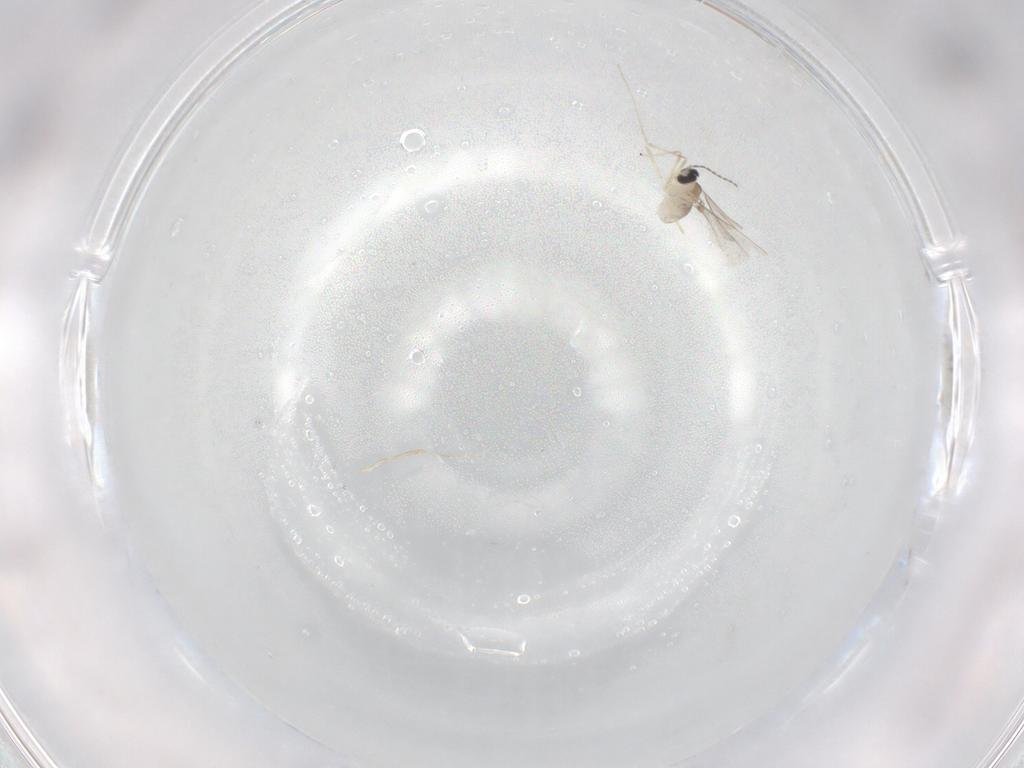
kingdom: Animalia
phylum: Arthropoda
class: Insecta
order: Diptera
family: Cecidomyiidae
